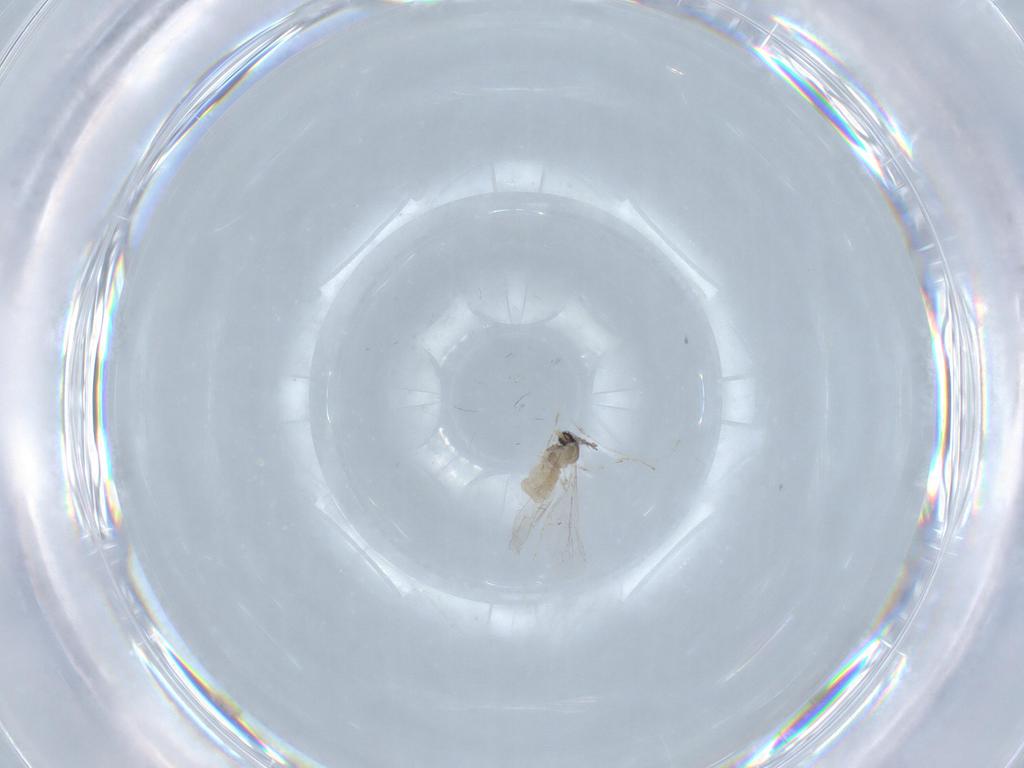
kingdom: Animalia
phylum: Arthropoda
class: Insecta
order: Diptera
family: Cecidomyiidae
